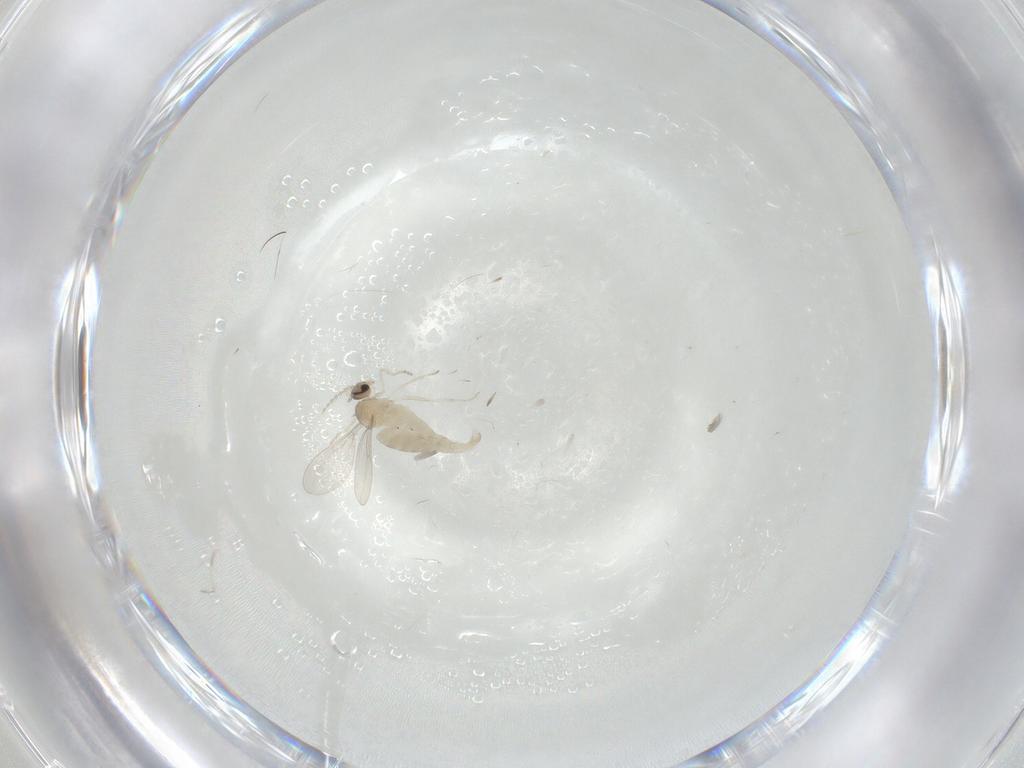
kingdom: Animalia
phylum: Arthropoda
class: Insecta
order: Diptera
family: Cecidomyiidae
